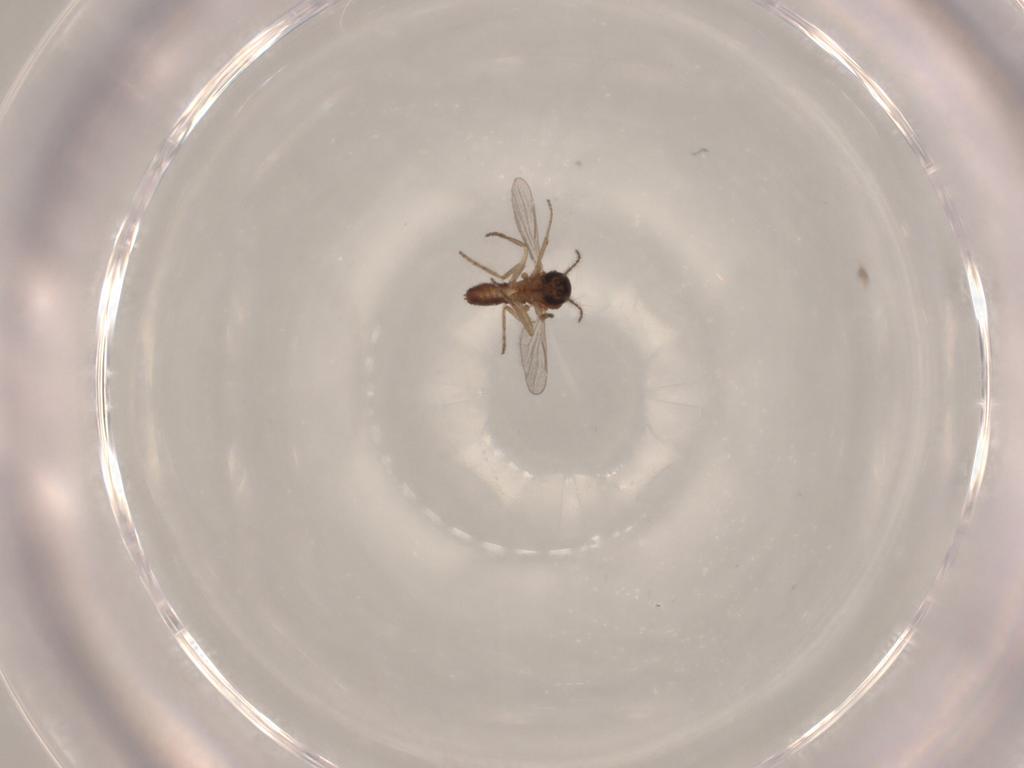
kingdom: Animalia
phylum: Arthropoda
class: Insecta
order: Diptera
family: Ceratopogonidae
